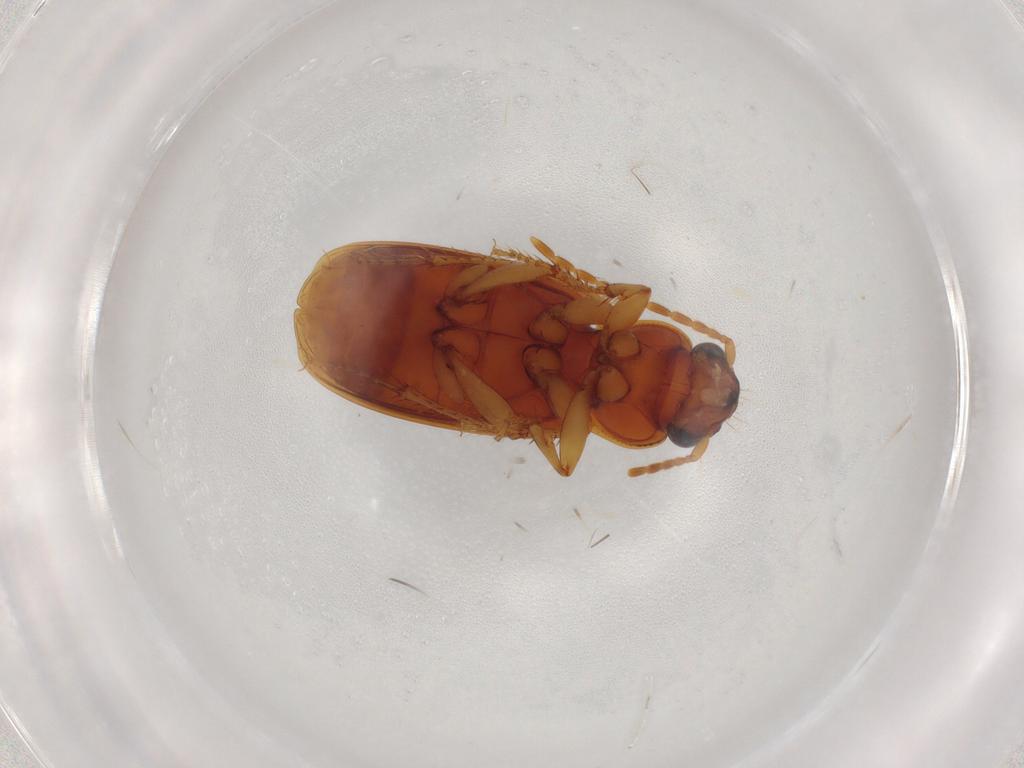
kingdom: Animalia
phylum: Arthropoda
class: Insecta
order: Coleoptera
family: Carabidae
